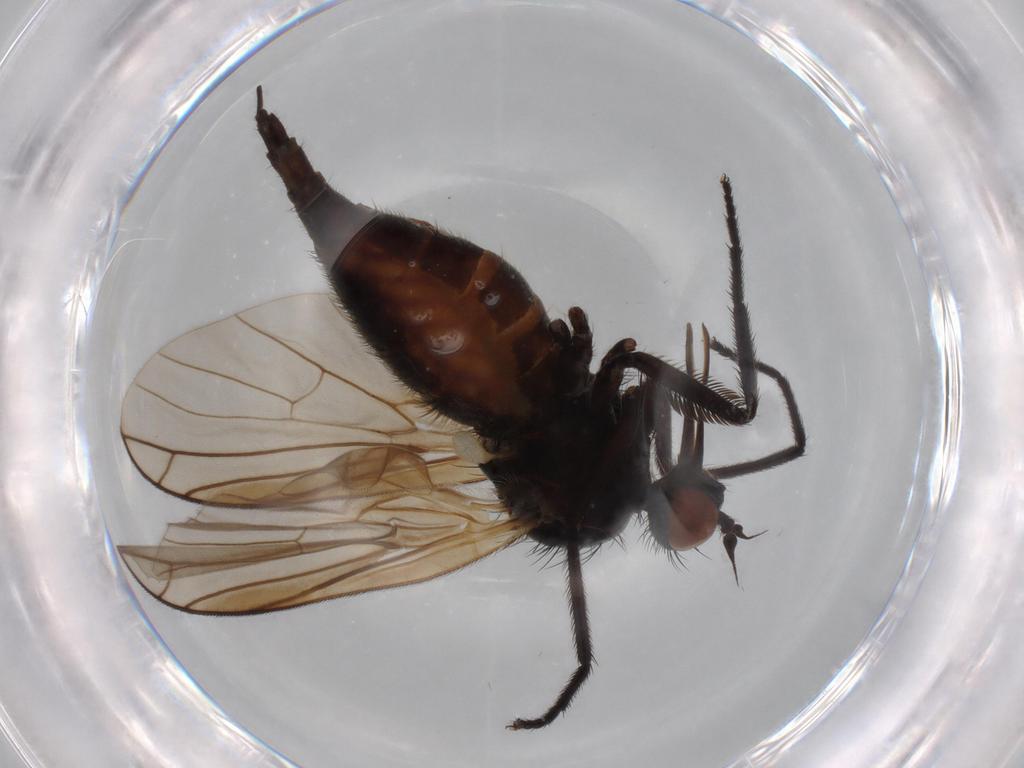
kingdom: Animalia
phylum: Arthropoda
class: Insecta
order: Diptera
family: Empididae
